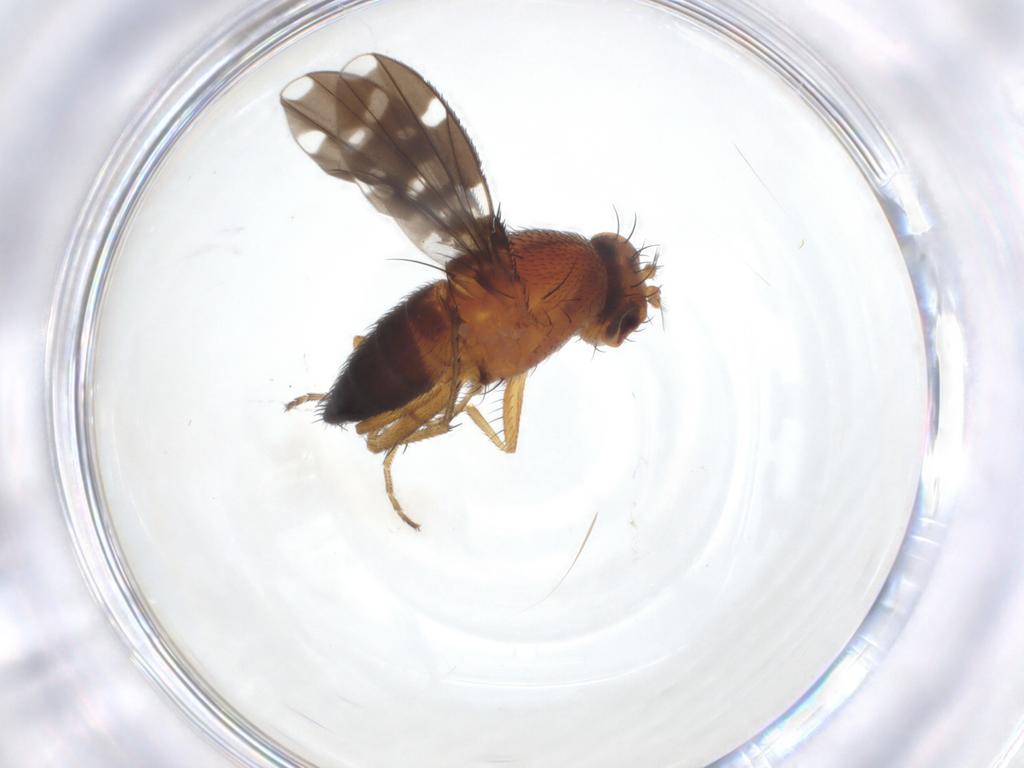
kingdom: Animalia
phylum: Arthropoda
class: Insecta
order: Diptera
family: Ephydridae
